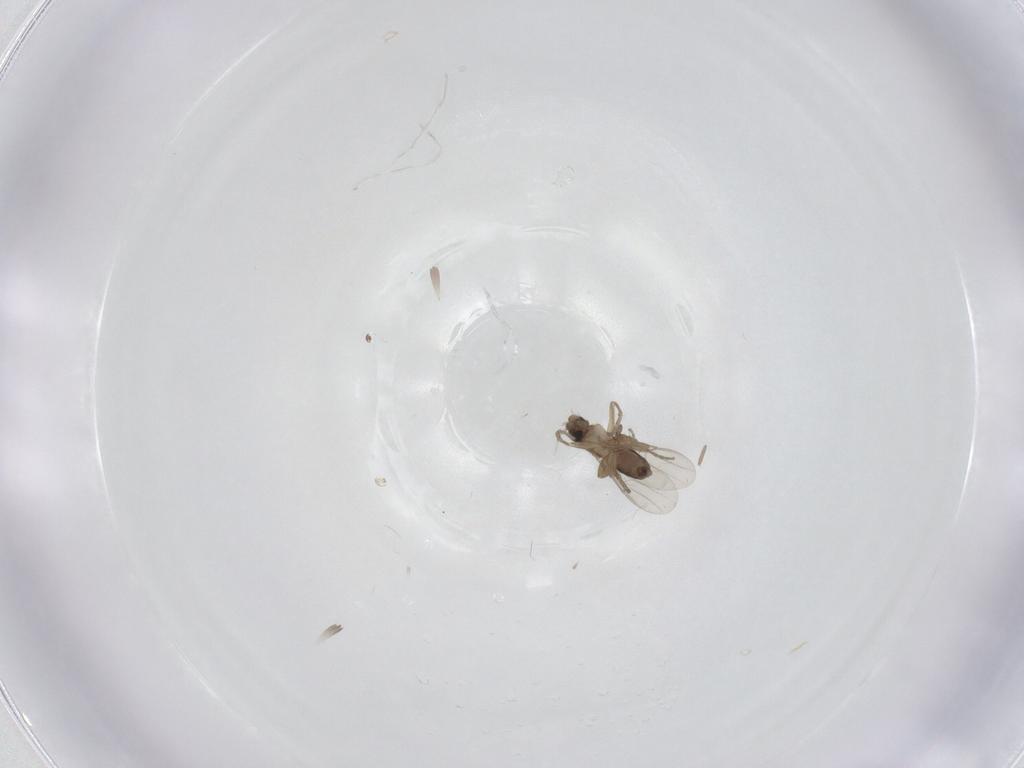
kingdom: Animalia
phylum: Arthropoda
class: Insecta
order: Diptera
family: Phoridae
